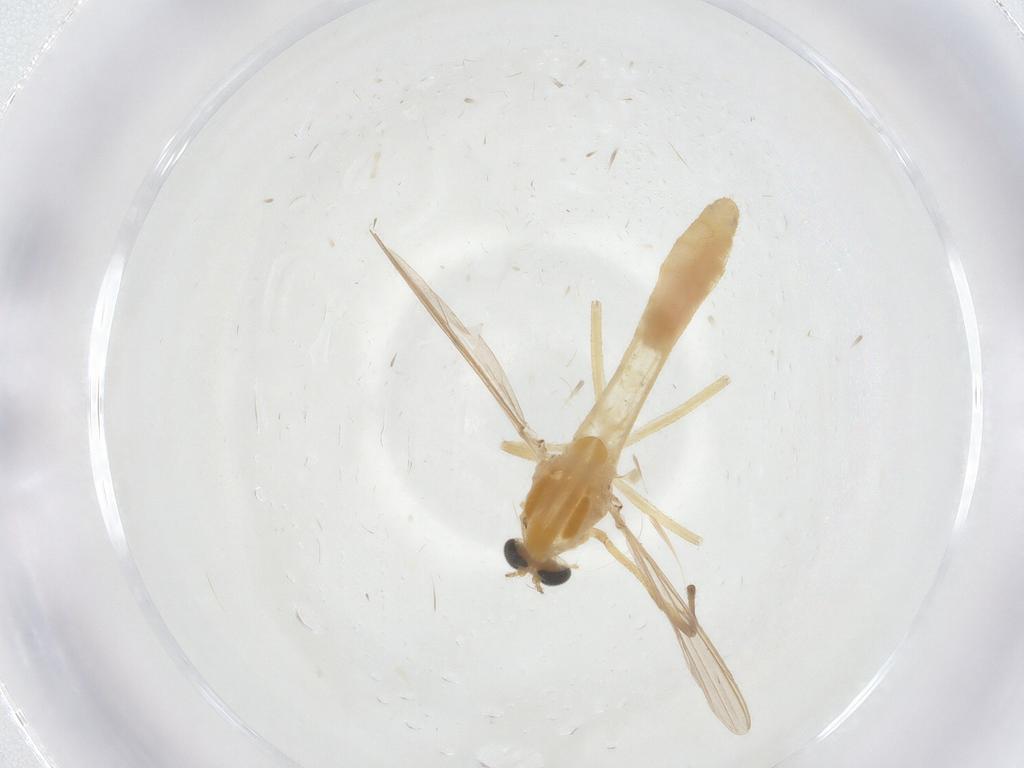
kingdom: Animalia
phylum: Arthropoda
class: Insecta
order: Diptera
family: Chironomidae
